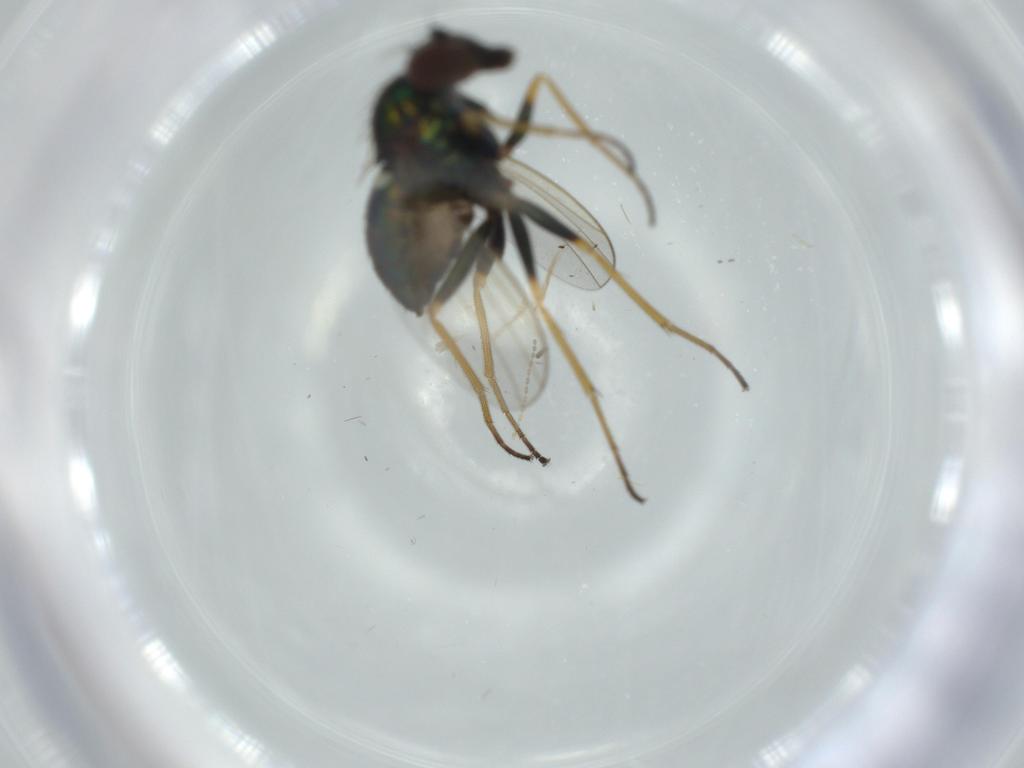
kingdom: Animalia
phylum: Arthropoda
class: Insecta
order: Diptera
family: Dolichopodidae
